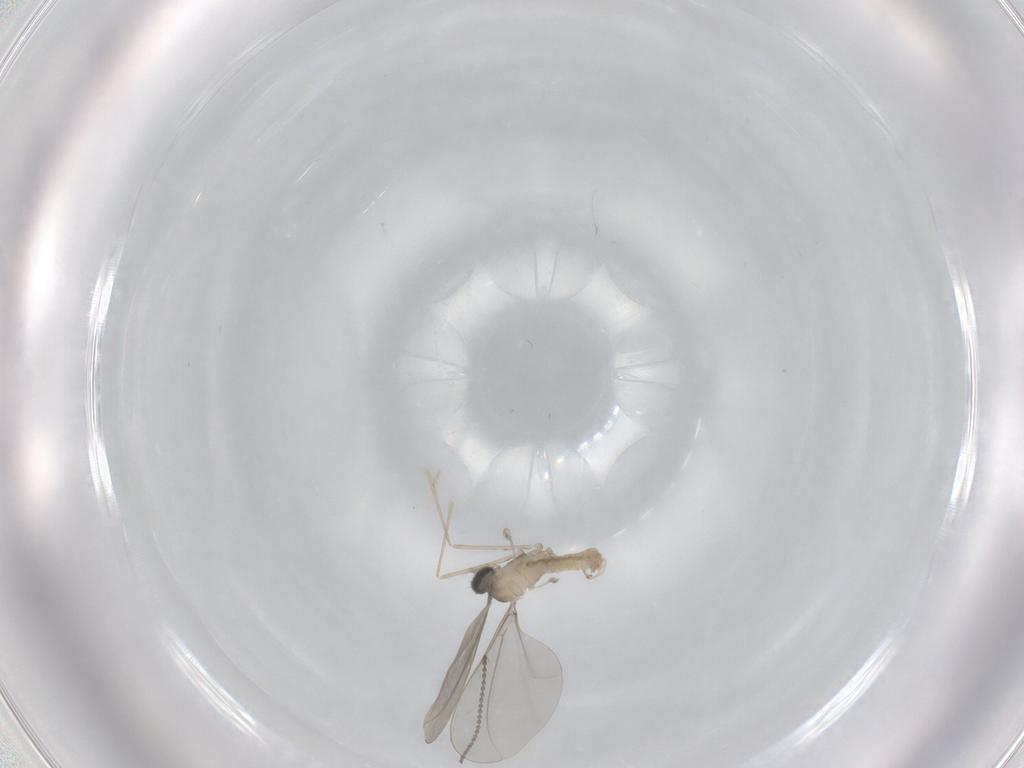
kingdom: Animalia
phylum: Arthropoda
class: Insecta
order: Diptera
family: Cecidomyiidae
